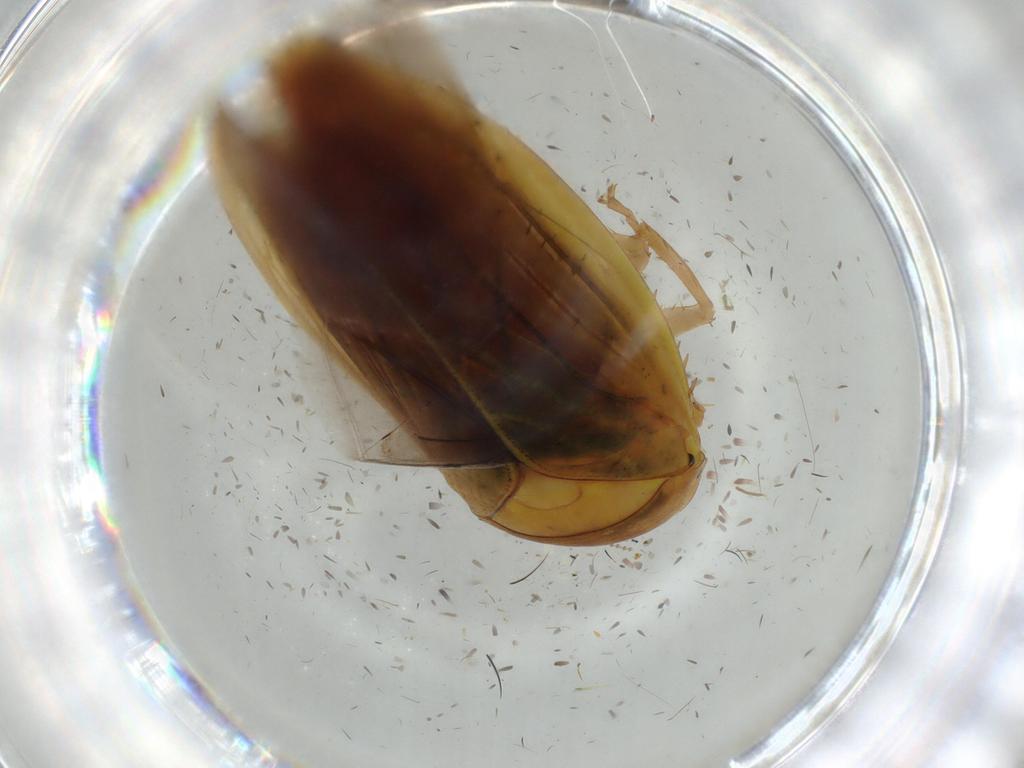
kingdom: Animalia
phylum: Arthropoda
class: Insecta
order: Hemiptera
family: Cicadellidae
